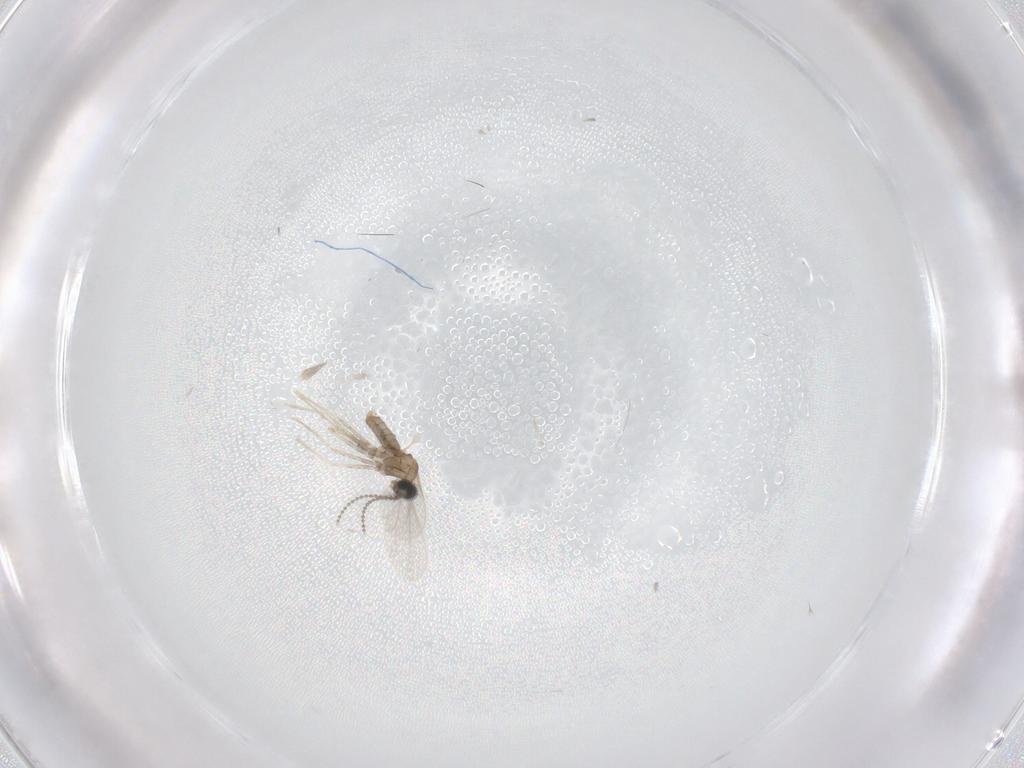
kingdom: Animalia
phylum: Arthropoda
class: Insecta
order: Diptera
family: Cecidomyiidae
